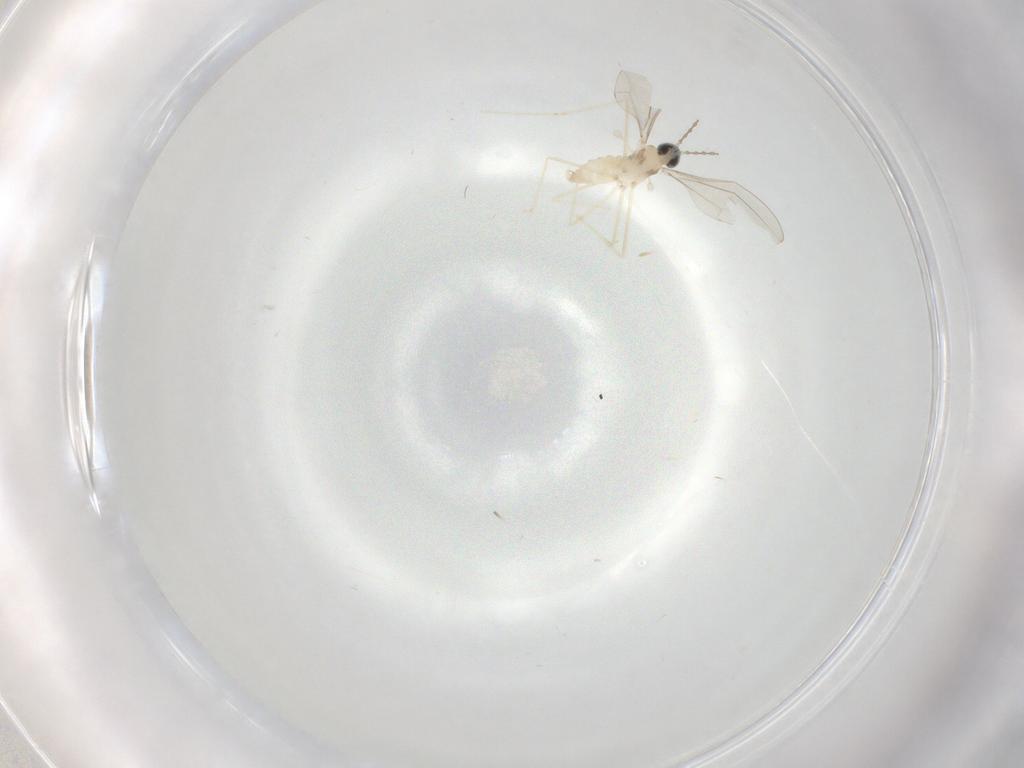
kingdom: Animalia
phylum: Arthropoda
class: Insecta
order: Diptera
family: Cecidomyiidae
